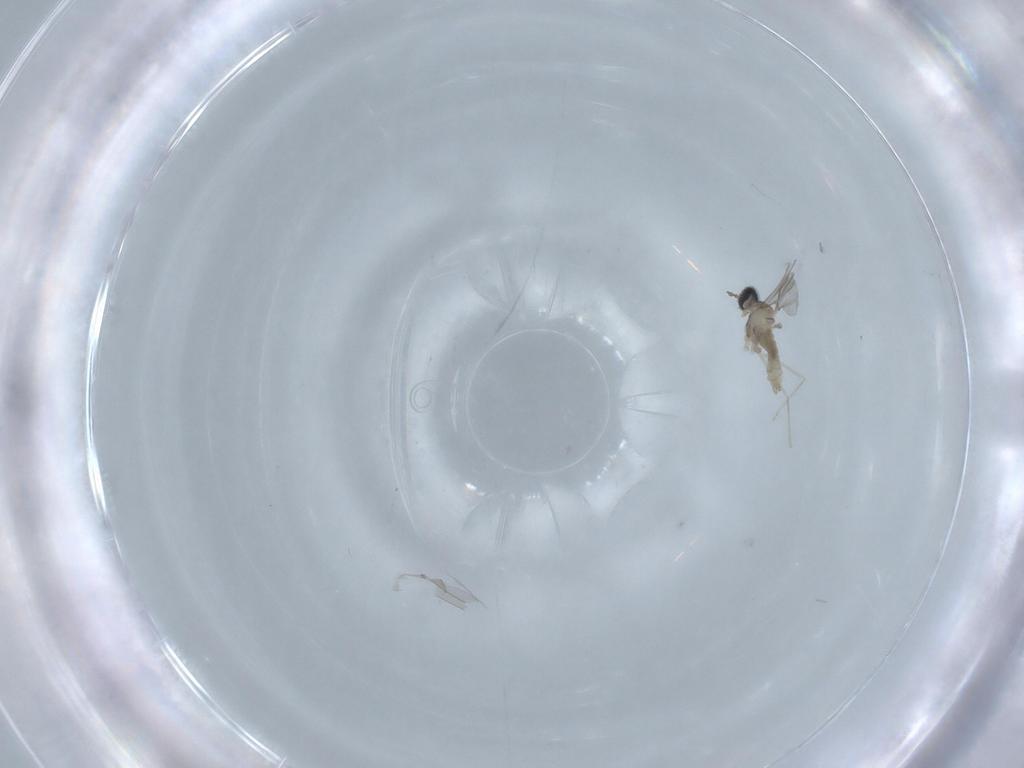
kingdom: Animalia
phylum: Arthropoda
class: Insecta
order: Diptera
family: Cecidomyiidae
